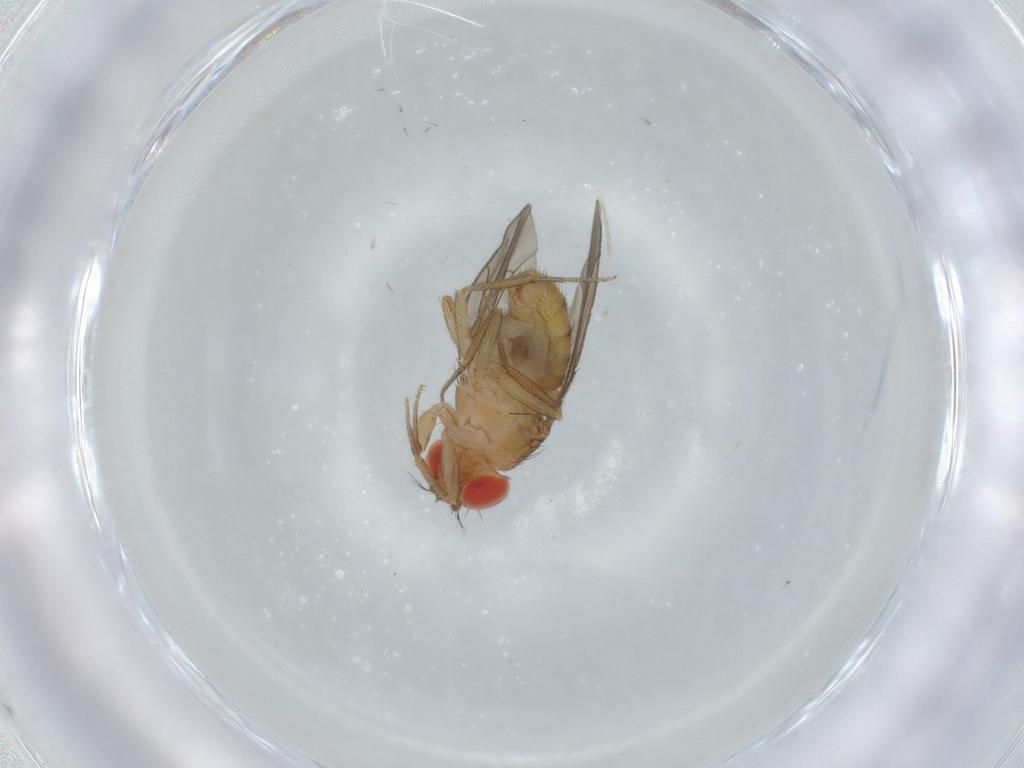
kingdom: Animalia
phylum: Arthropoda
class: Insecta
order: Diptera
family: Drosophilidae
